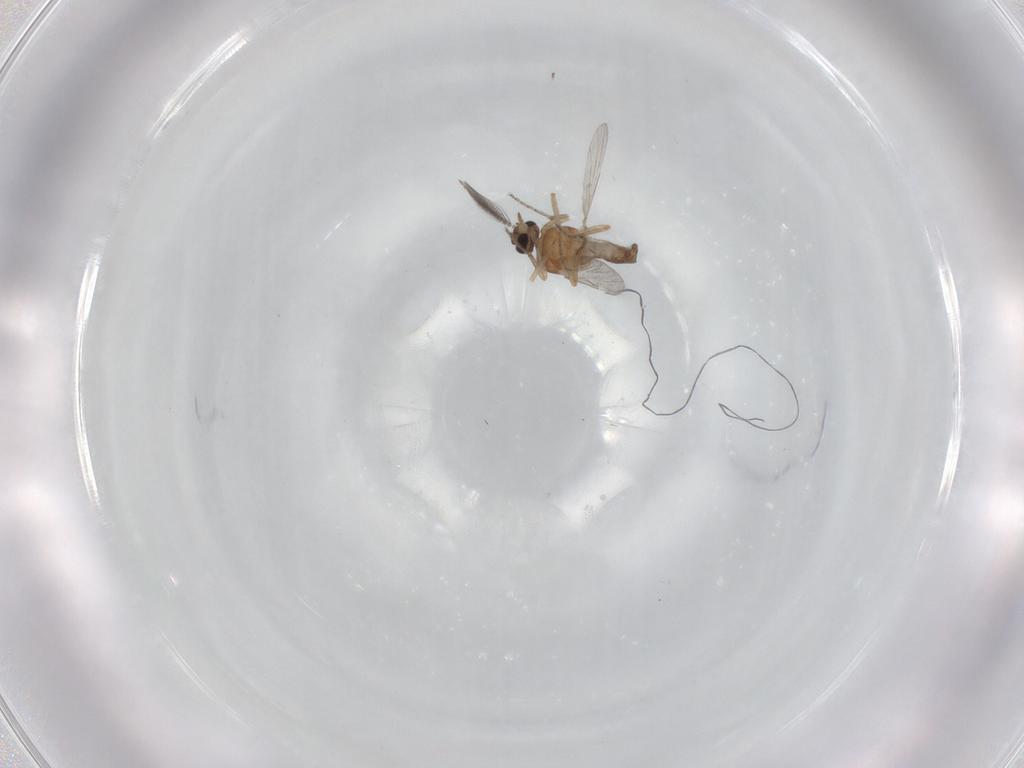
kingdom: Animalia
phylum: Arthropoda
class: Insecta
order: Diptera
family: Ceratopogonidae
